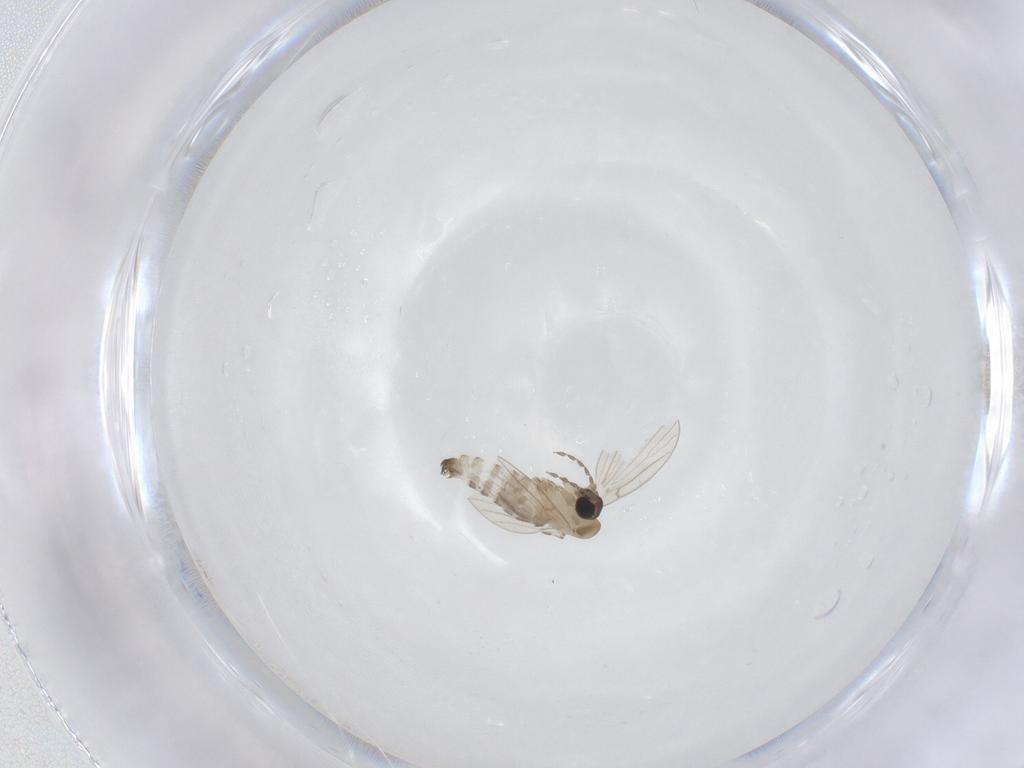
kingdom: Animalia
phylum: Arthropoda
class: Insecta
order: Diptera
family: Psychodidae
